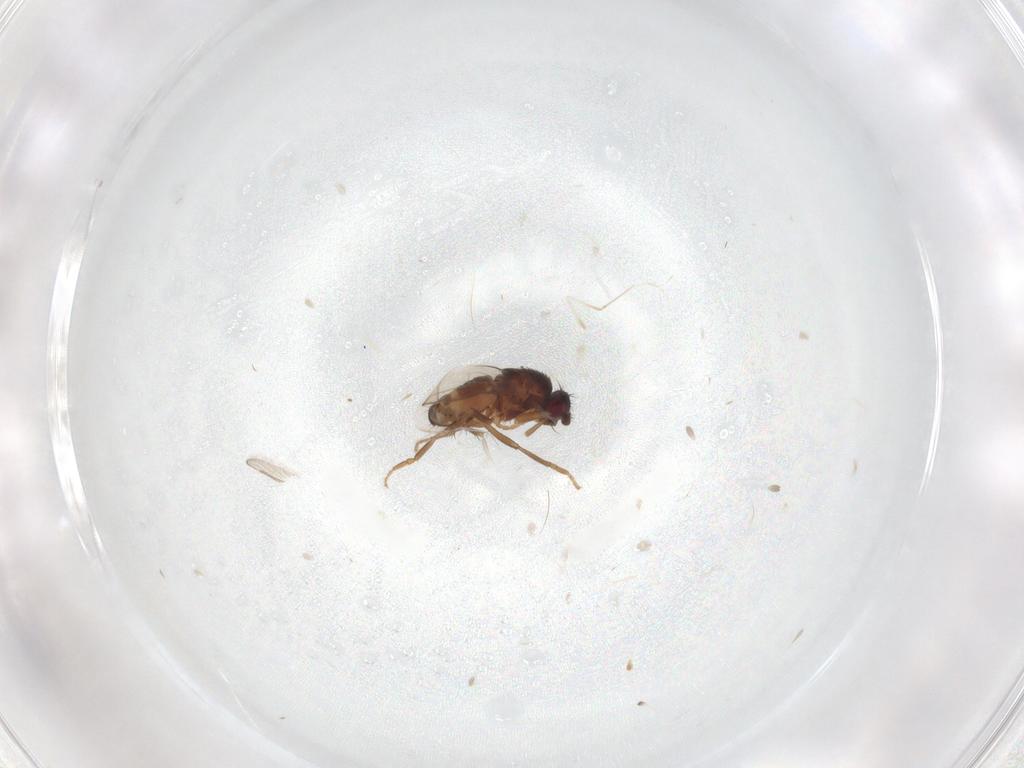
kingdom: Animalia
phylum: Arthropoda
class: Insecta
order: Diptera
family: Sphaeroceridae
